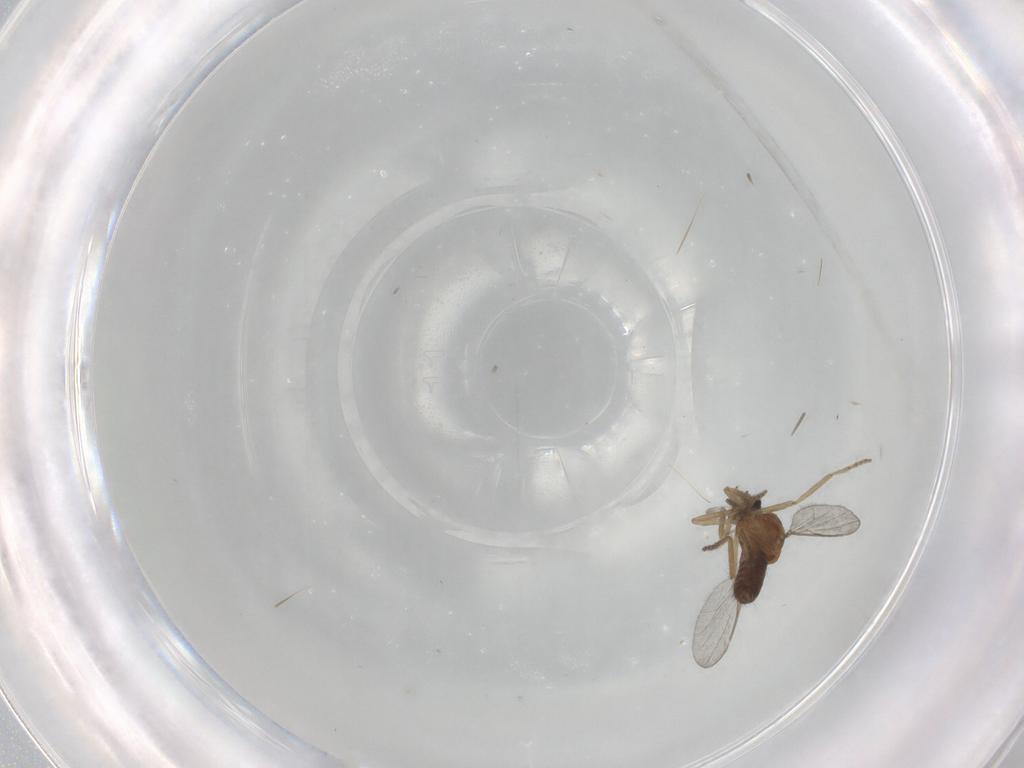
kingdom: Animalia
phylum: Arthropoda
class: Insecta
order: Diptera
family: Ceratopogonidae
